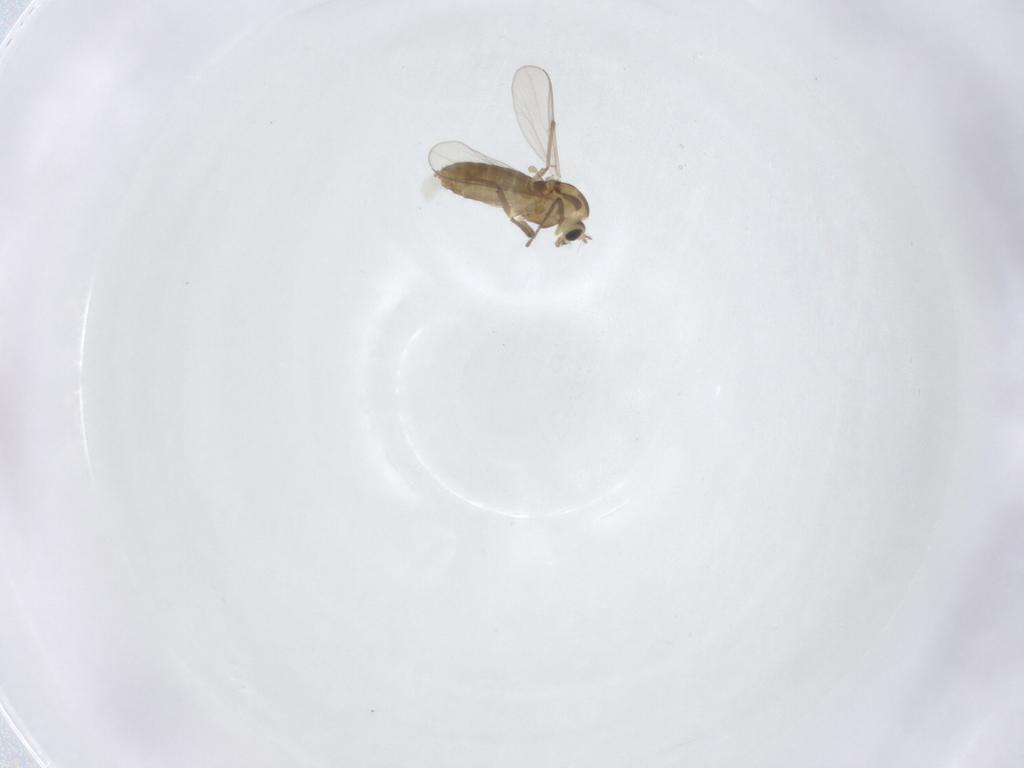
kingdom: Animalia
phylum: Arthropoda
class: Insecta
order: Diptera
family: Chironomidae
